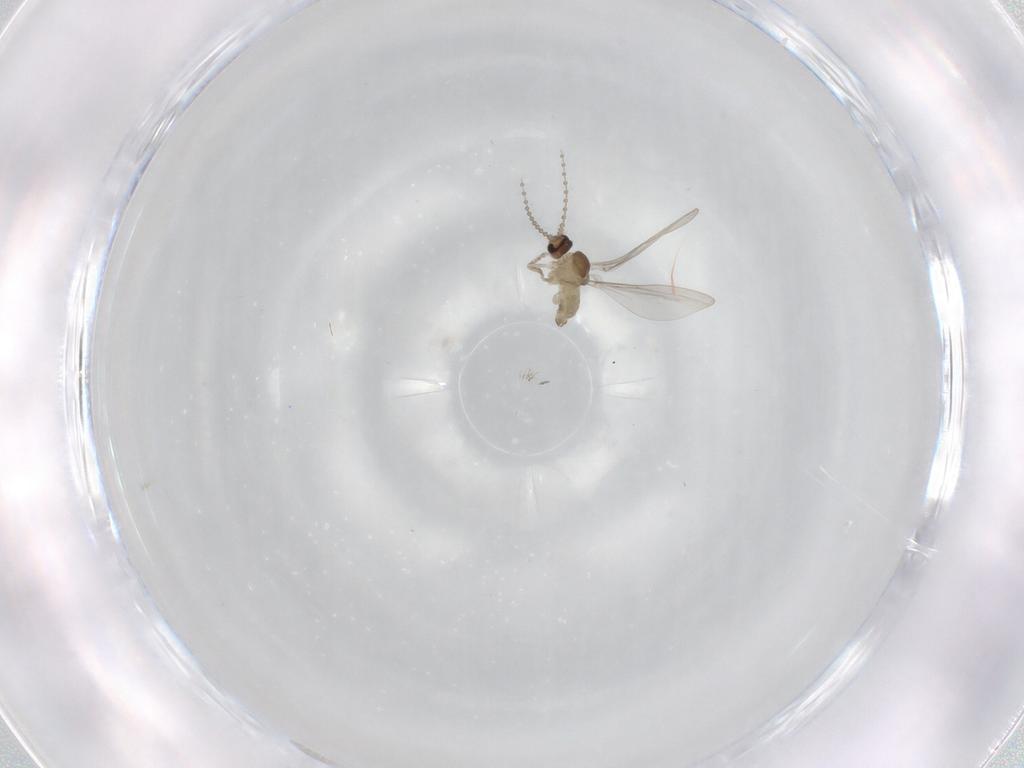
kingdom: Animalia
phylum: Arthropoda
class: Insecta
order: Diptera
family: Cecidomyiidae
